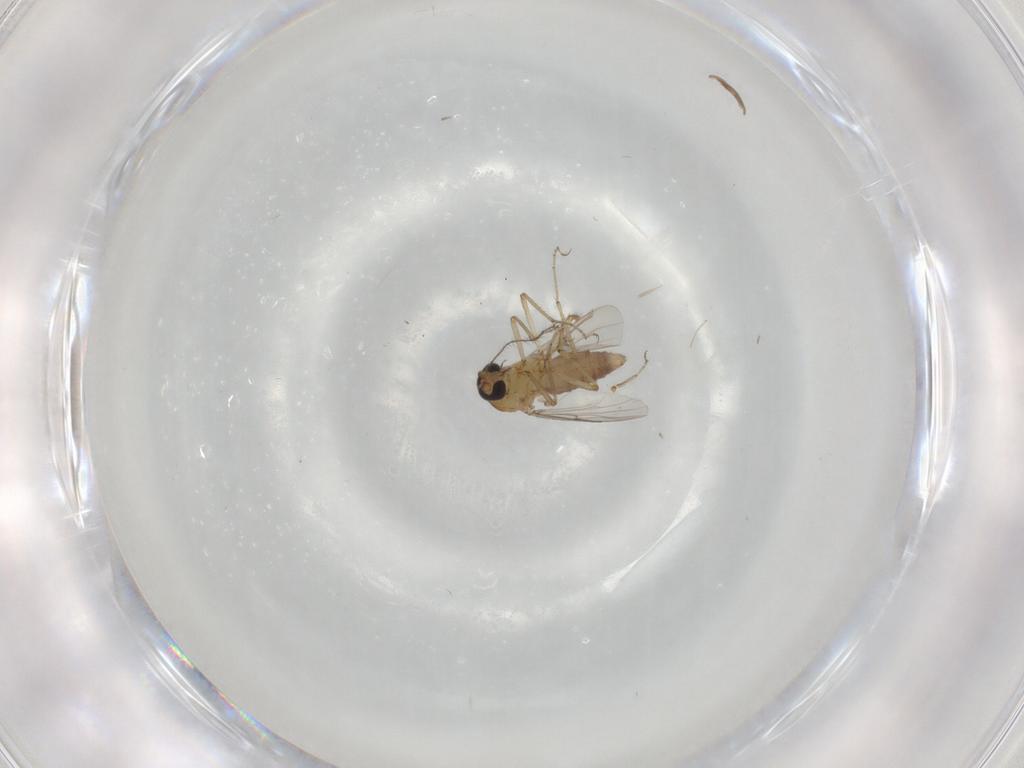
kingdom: Animalia
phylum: Arthropoda
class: Insecta
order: Diptera
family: Ceratopogonidae
